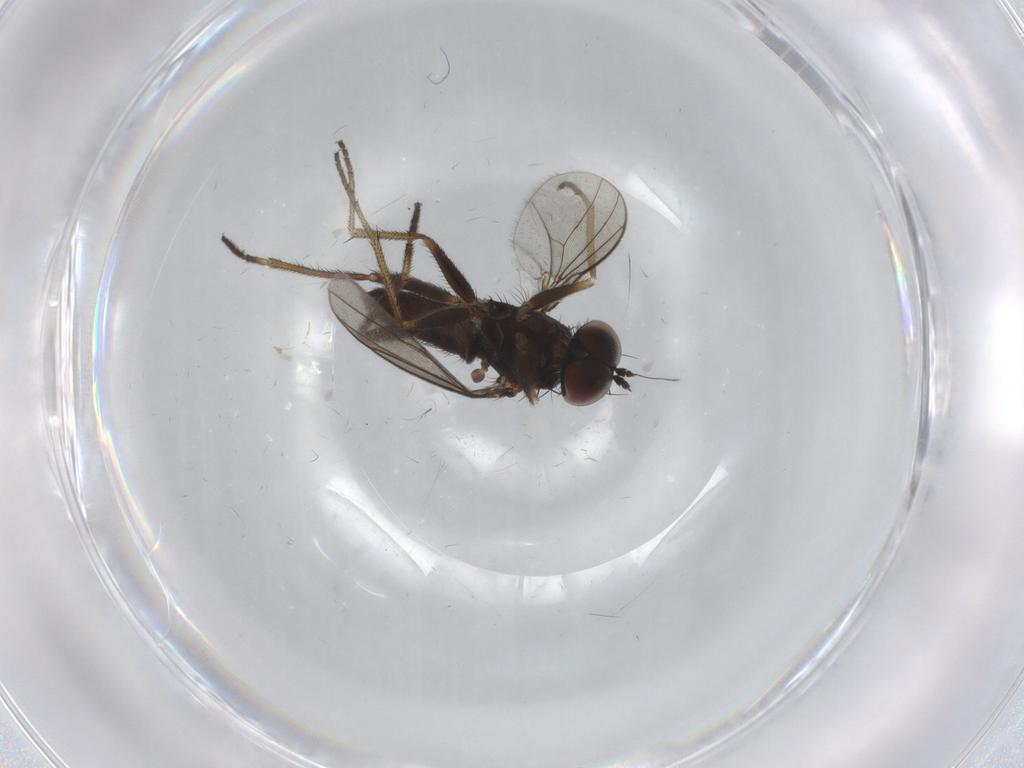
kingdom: Animalia
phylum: Arthropoda
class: Insecta
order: Diptera
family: Dolichopodidae
